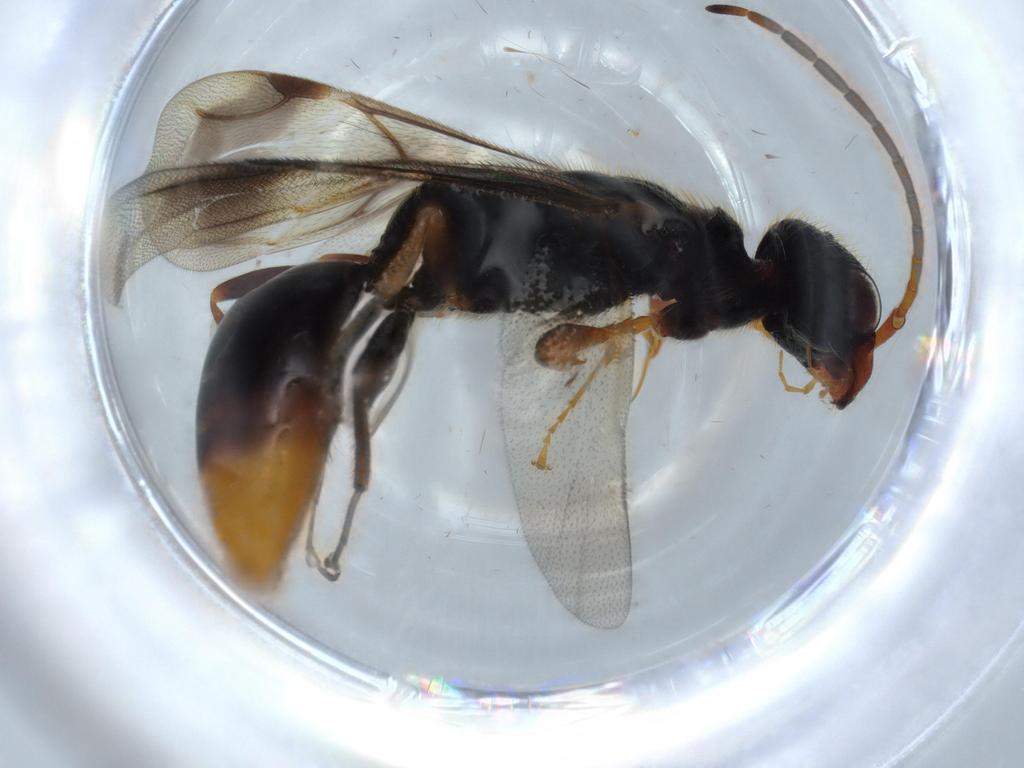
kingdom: Animalia
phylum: Arthropoda
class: Insecta
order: Hymenoptera
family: Bethylidae
